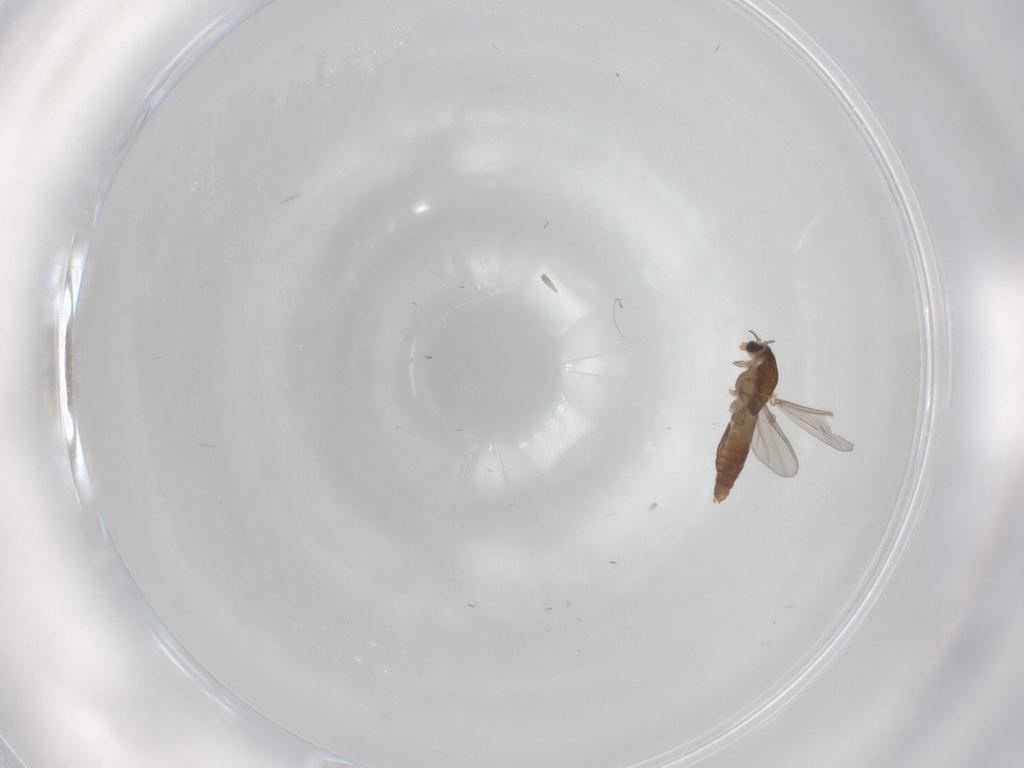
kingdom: Animalia
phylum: Arthropoda
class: Insecta
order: Diptera
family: Chironomidae
